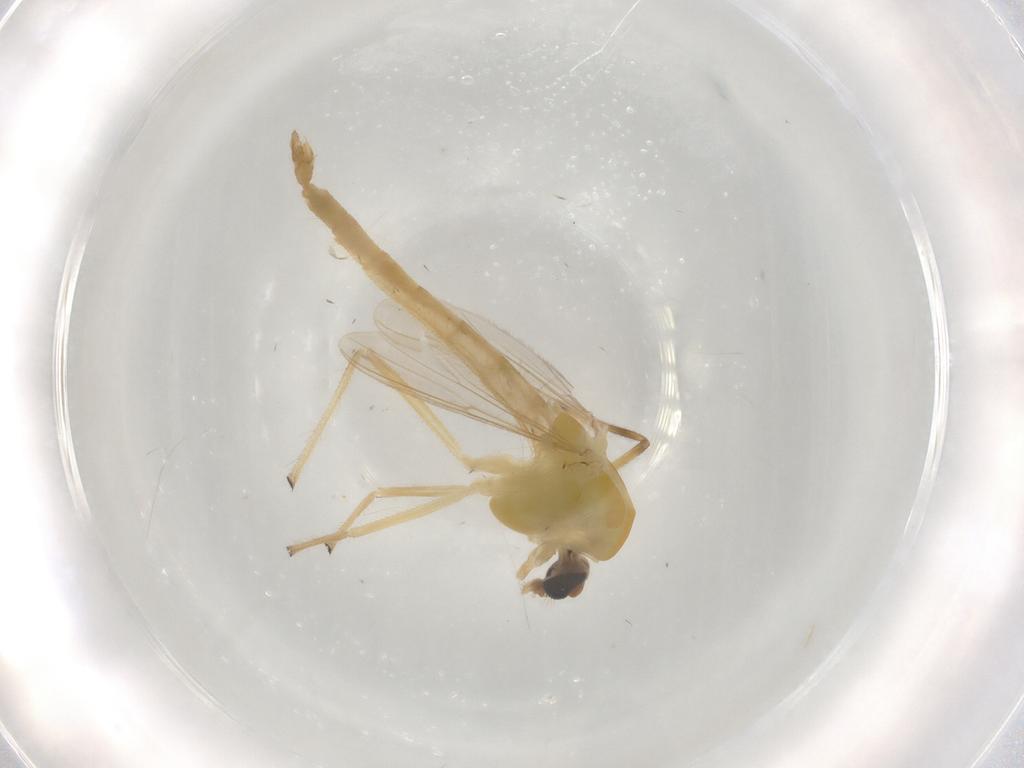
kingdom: Animalia
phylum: Arthropoda
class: Insecta
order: Diptera
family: Chironomidae
